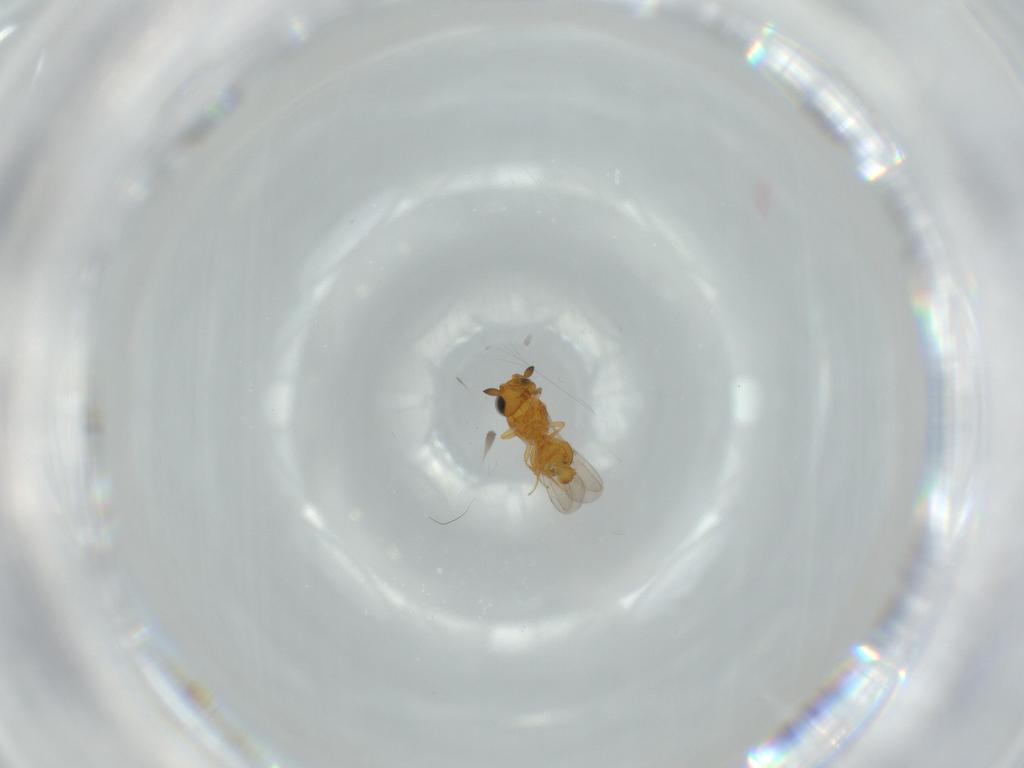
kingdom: Animalia
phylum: Arthropoda
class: Insecta
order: Hymenoptera
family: Scelionidae
